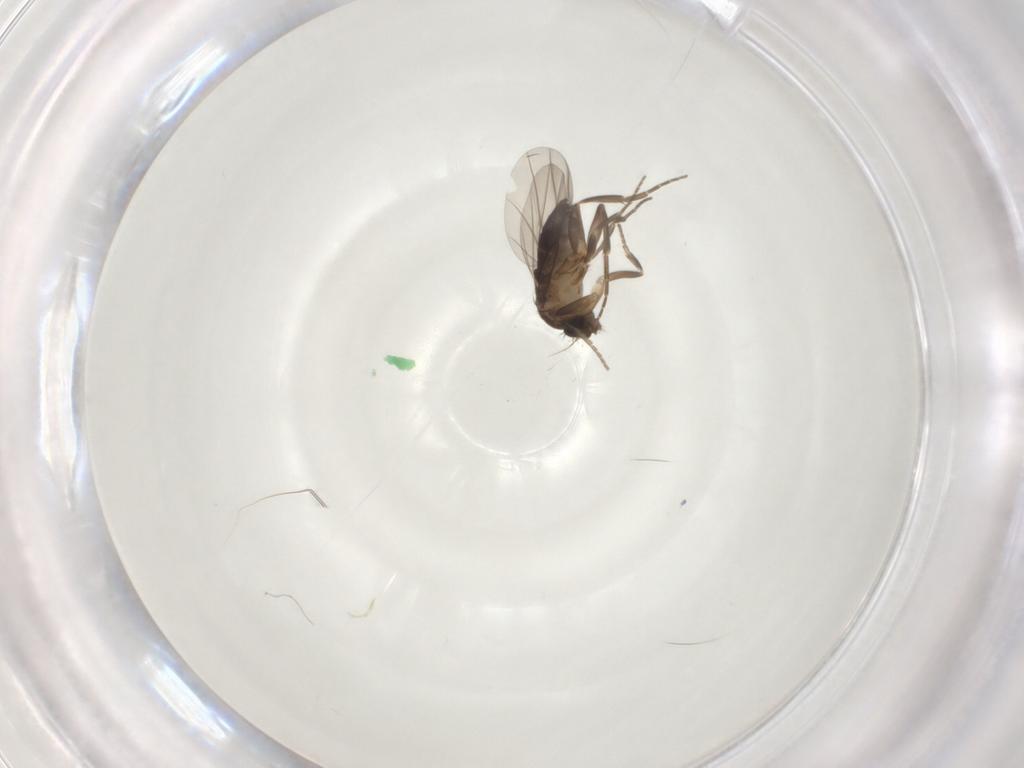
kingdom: Animalia
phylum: Arthropoda
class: Insecta
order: Diptera
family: Phoridae
